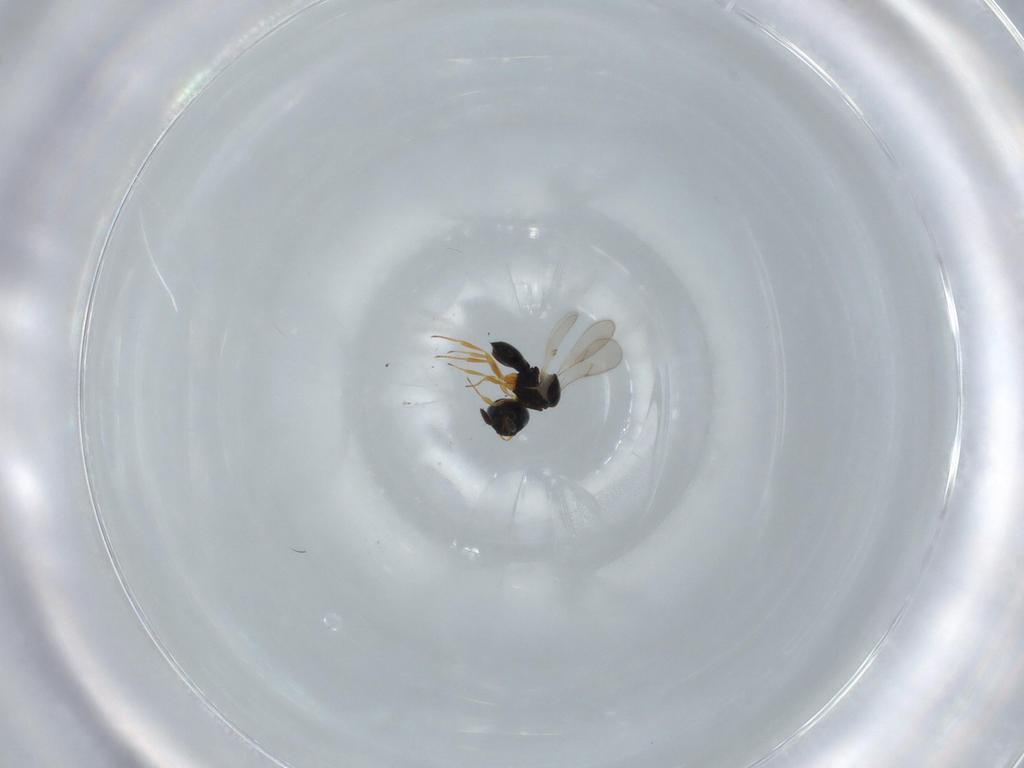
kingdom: Animalia
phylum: Arthropoda
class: Insecta
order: Hymenoptera
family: Scelionidae
